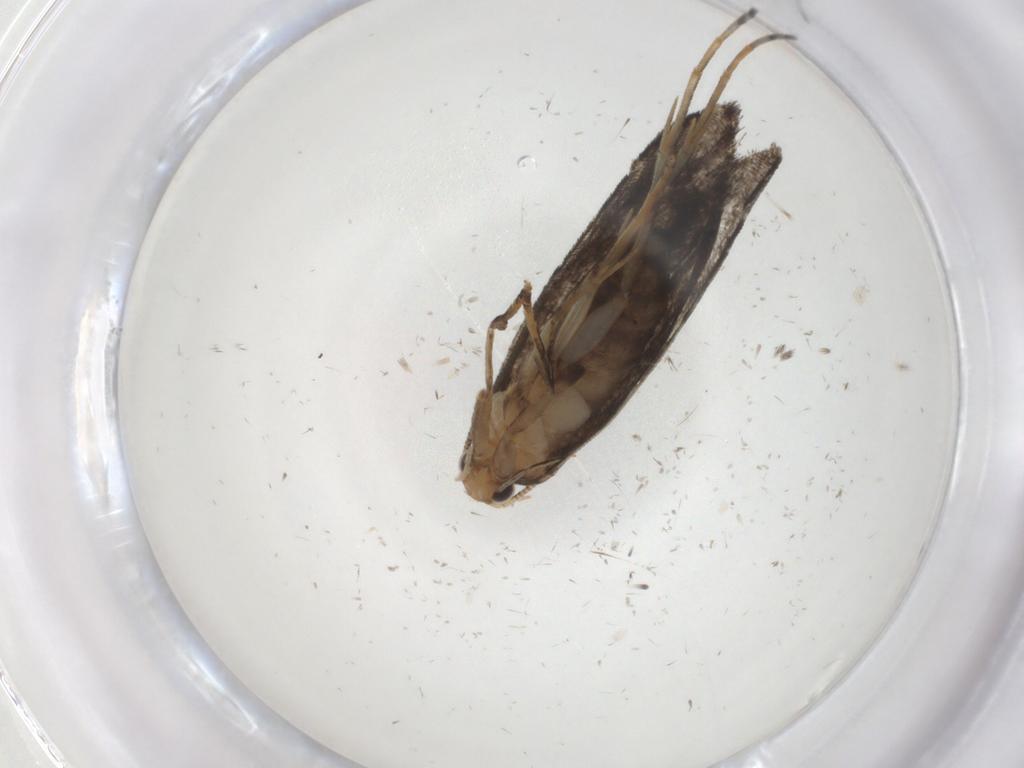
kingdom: Animalia
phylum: Arthropoda
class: Insecta
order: Lepidoptera
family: Tineidae
